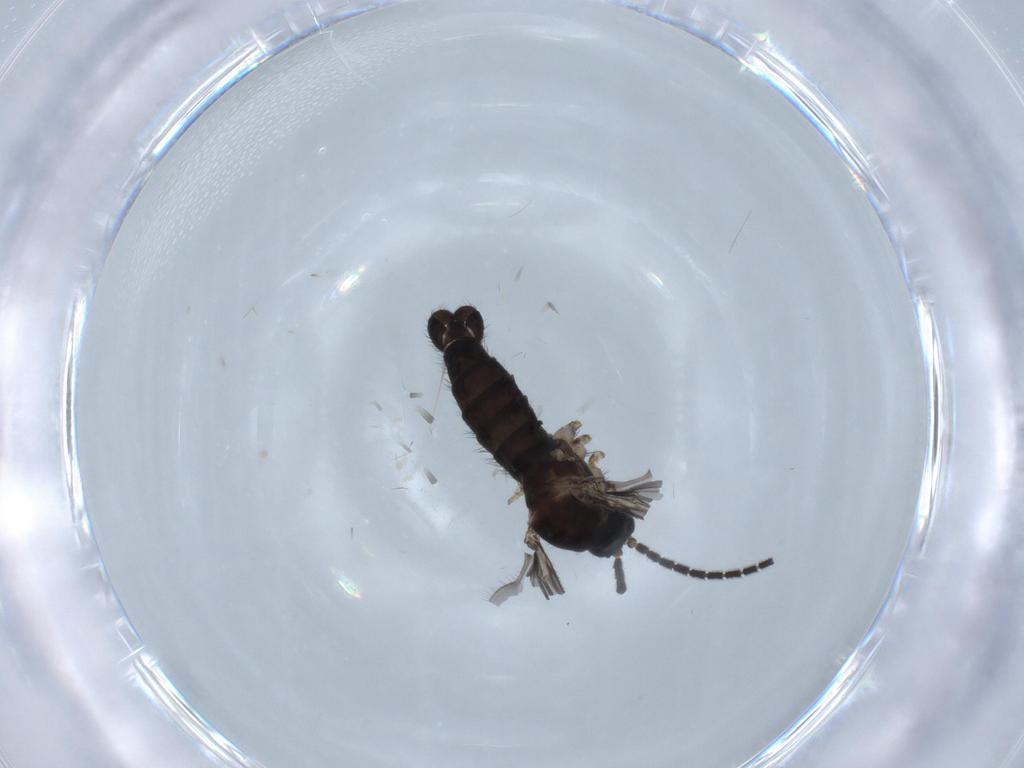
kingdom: Animalia
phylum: Arthropoda
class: Insecta
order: Diptera
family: Sciaridae
